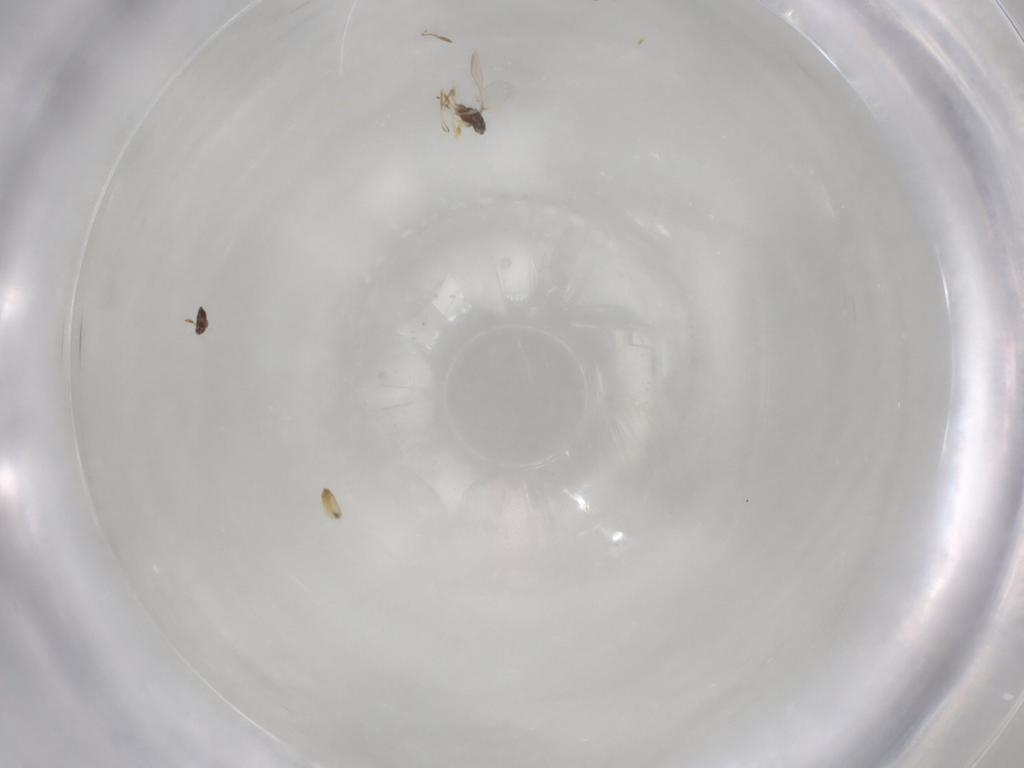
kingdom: Animalia
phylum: Arthropoda
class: Insecta
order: Hymenoptera
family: Mymaridae
